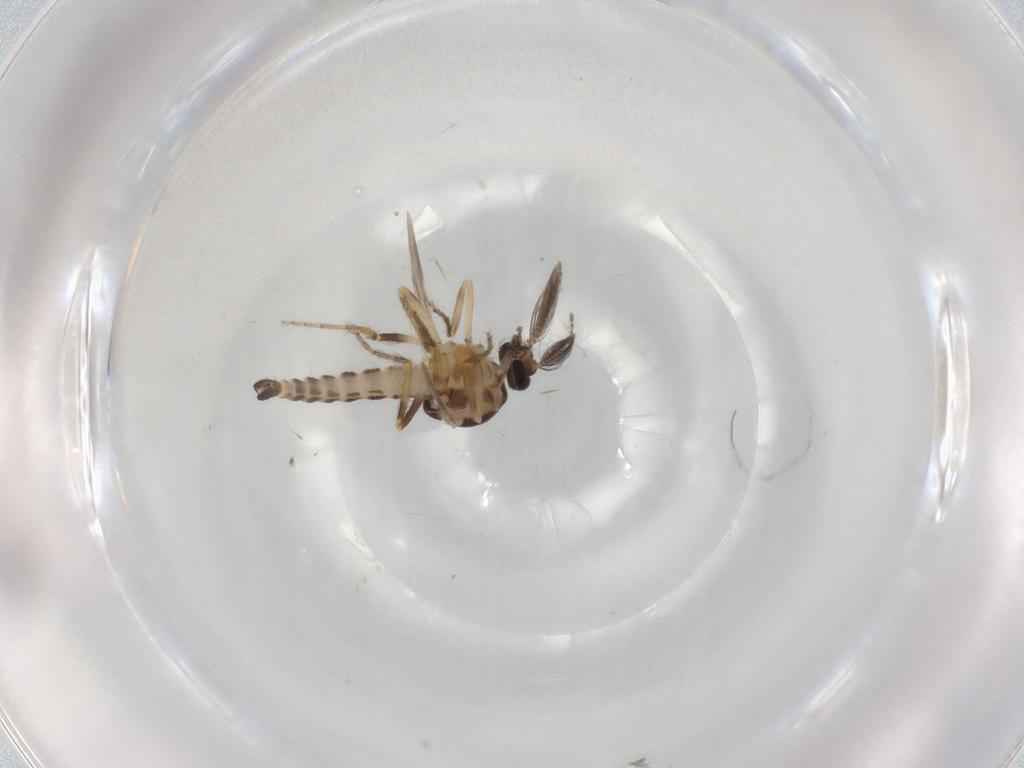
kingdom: Animalia
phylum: Arthropoda
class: Insecta
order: Diptera
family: Ceratopogonidae
